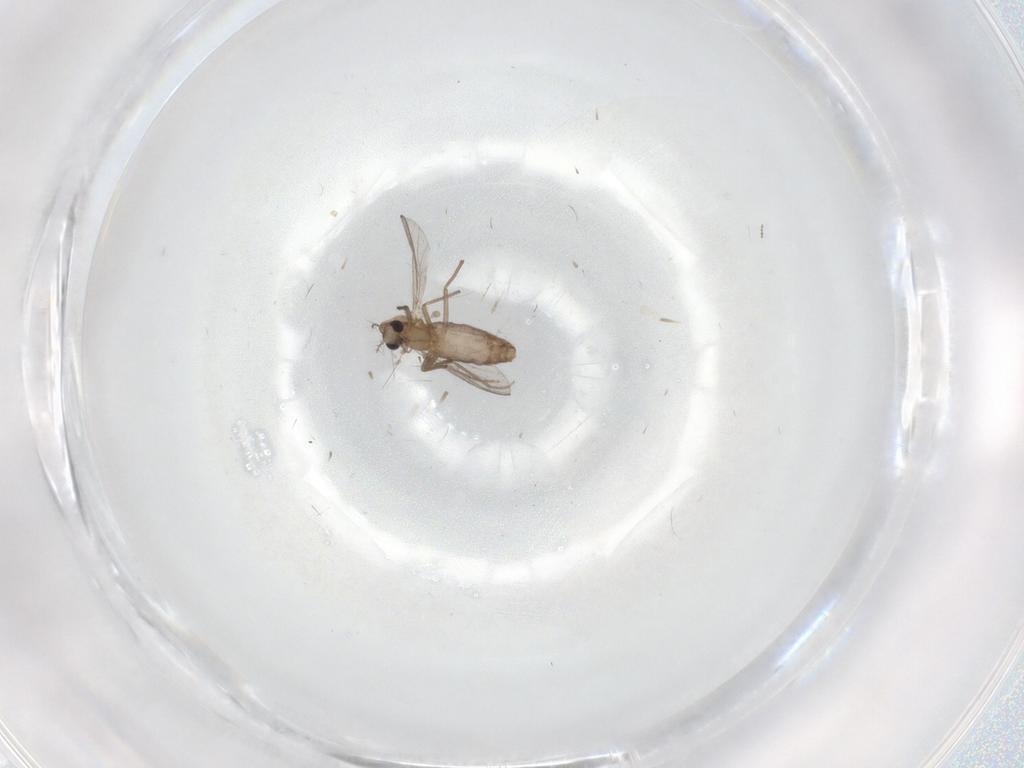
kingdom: Animalia
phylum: Arthropoda
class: Insecta
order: Diptera
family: Chironomidae
